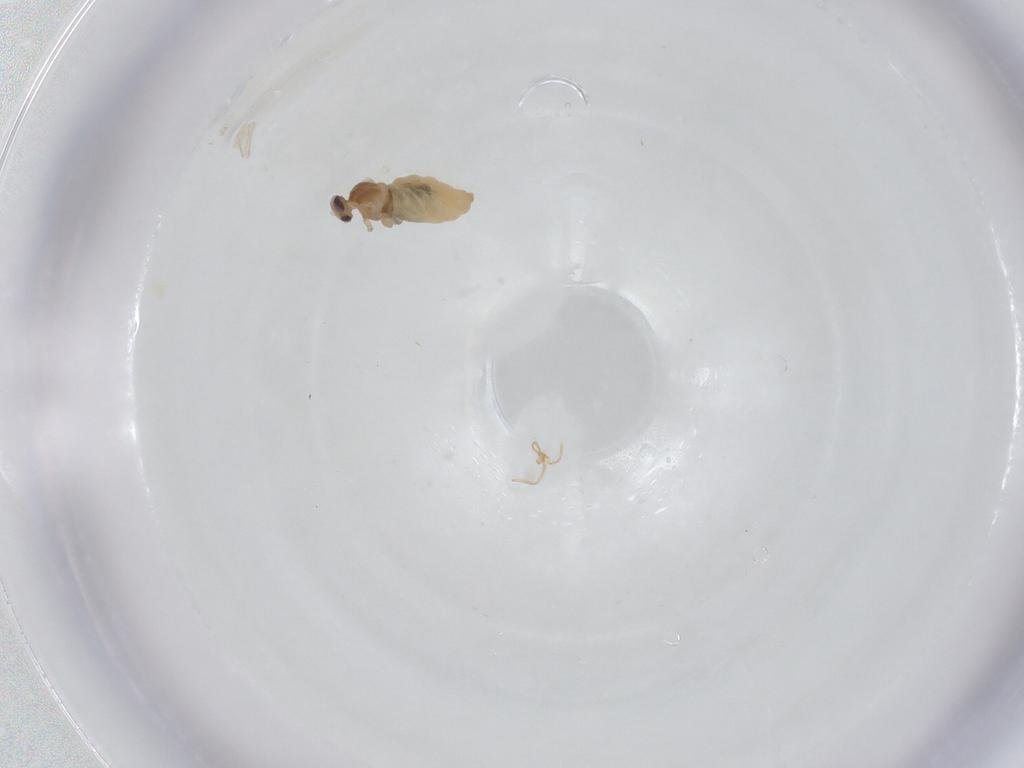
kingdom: Animalia
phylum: Arthropoda
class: Insecta
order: Diptera
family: Cecidomyiidae
